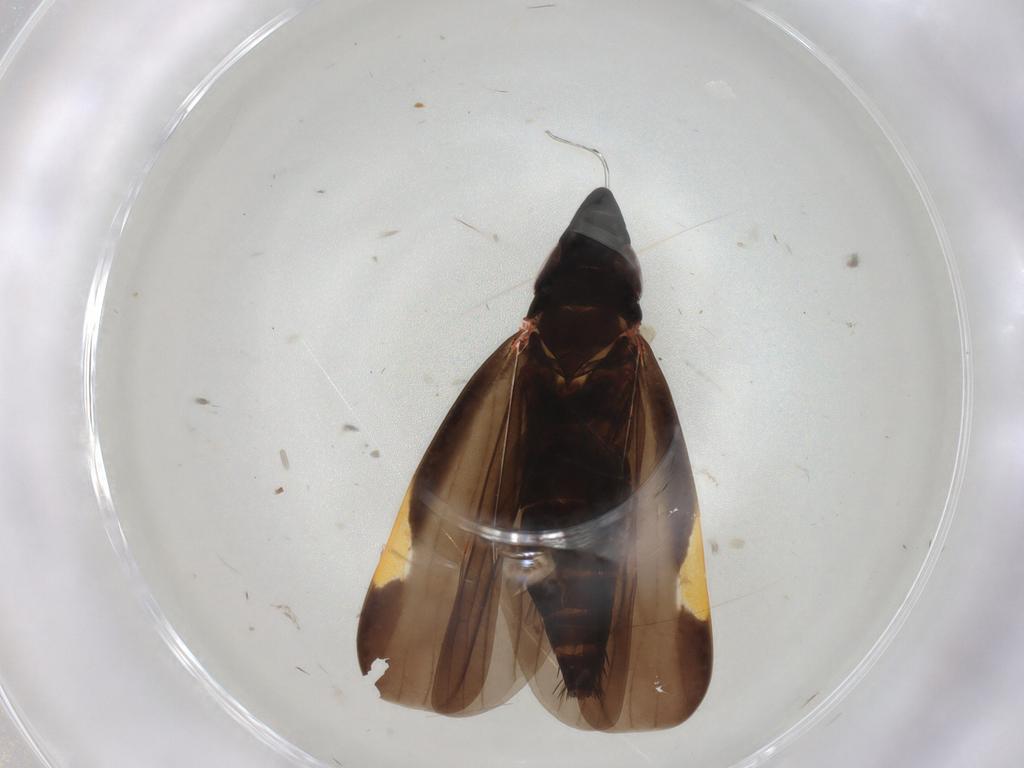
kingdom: Animalia
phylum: Arthropoda
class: Insecta
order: Hemiptera
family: Cicadellidae
